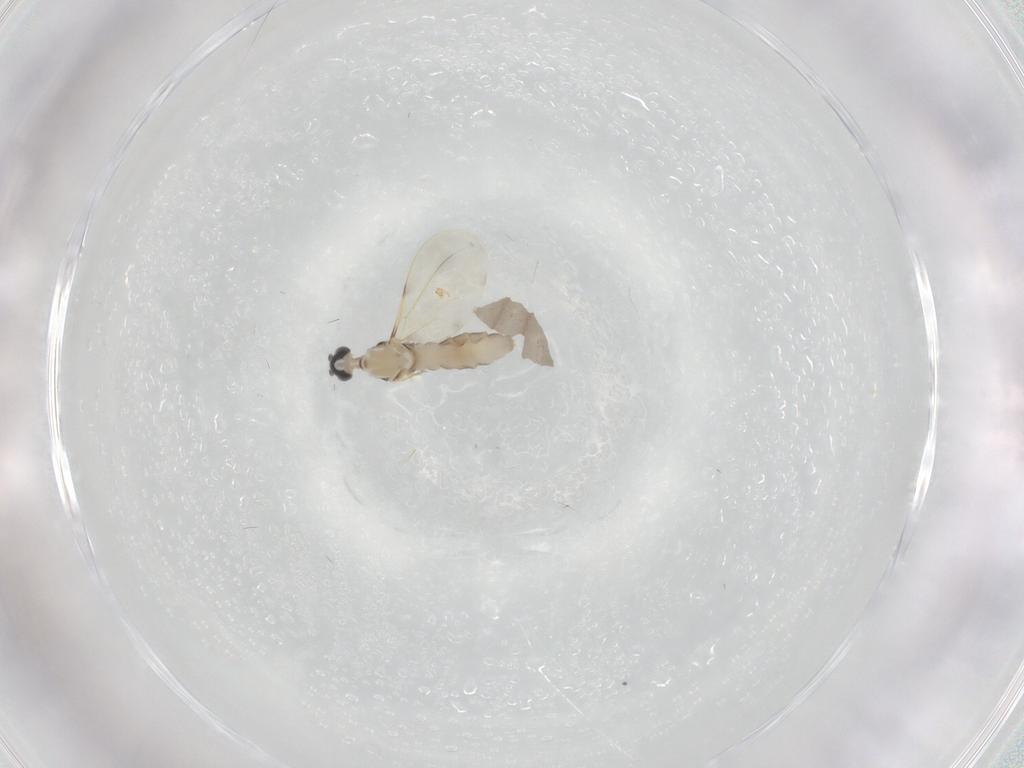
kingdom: Animalia
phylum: Arthropoda
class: Insecta
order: Diptera
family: Cecidomyiidae
